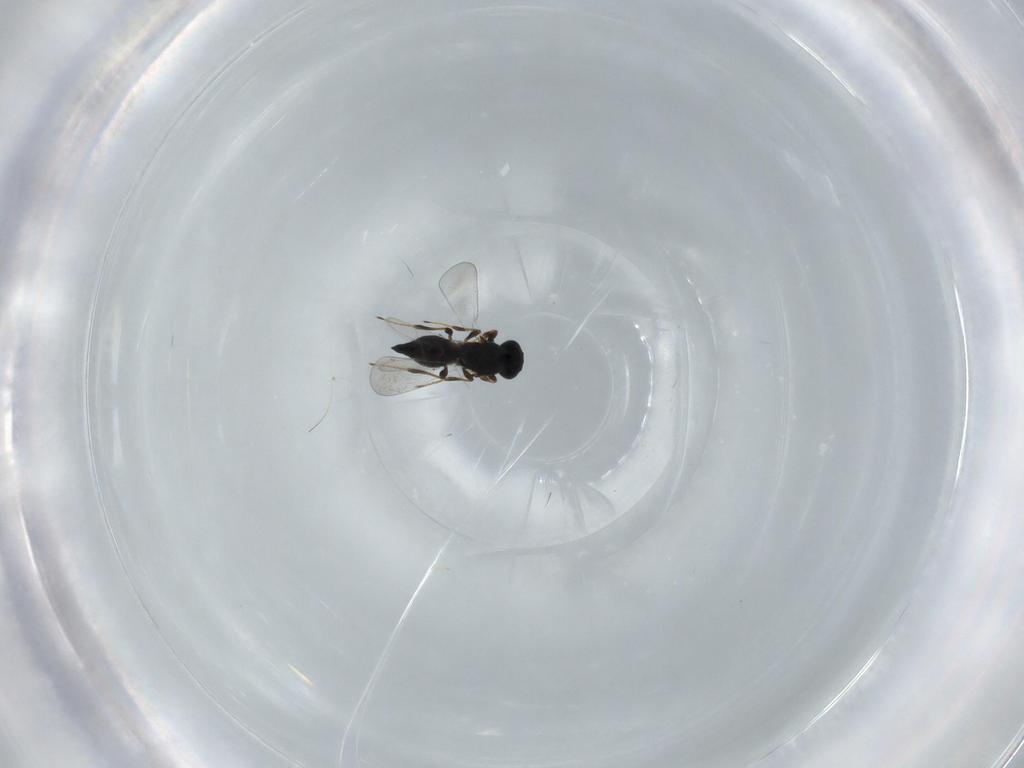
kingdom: Animalia
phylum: Arthropoda
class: Insecta
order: Hymenoptera
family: Platygastridae
